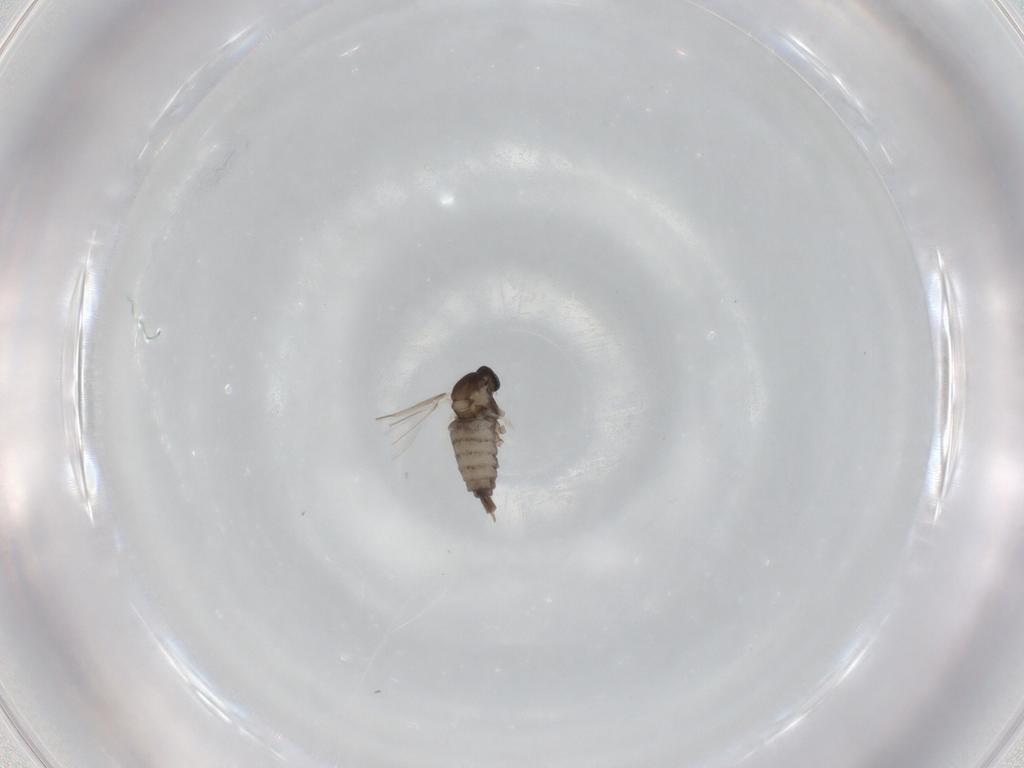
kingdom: Animalia
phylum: Arthropoda
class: Insecta
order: Diptera
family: Cecidomyiidae
